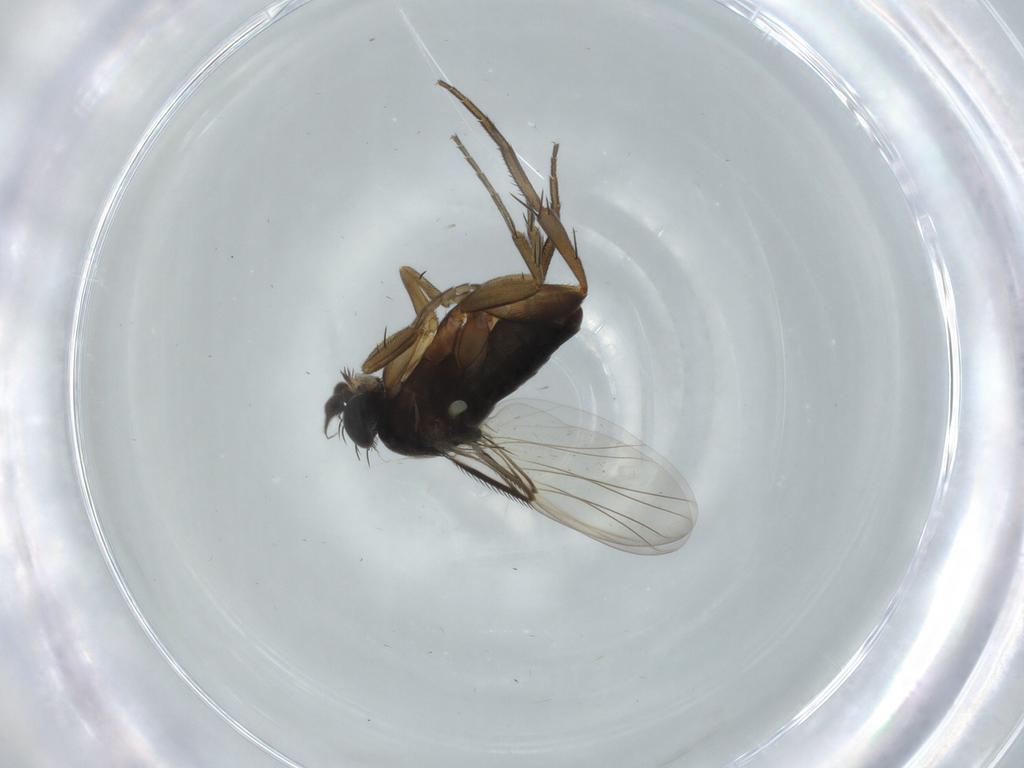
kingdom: Animalia
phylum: Arthropoda
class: Insecta
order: Diptera
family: Phoridae
